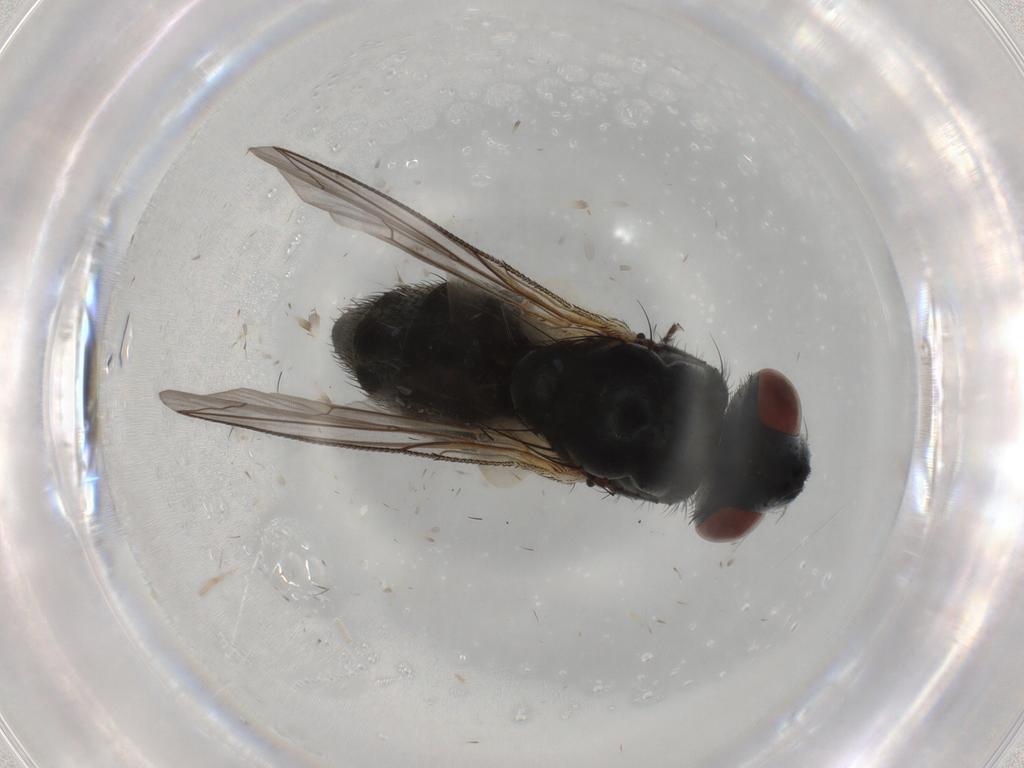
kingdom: Animalia
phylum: Arthropoda
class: Insecta
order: Diptera
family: Sarcophagidae
